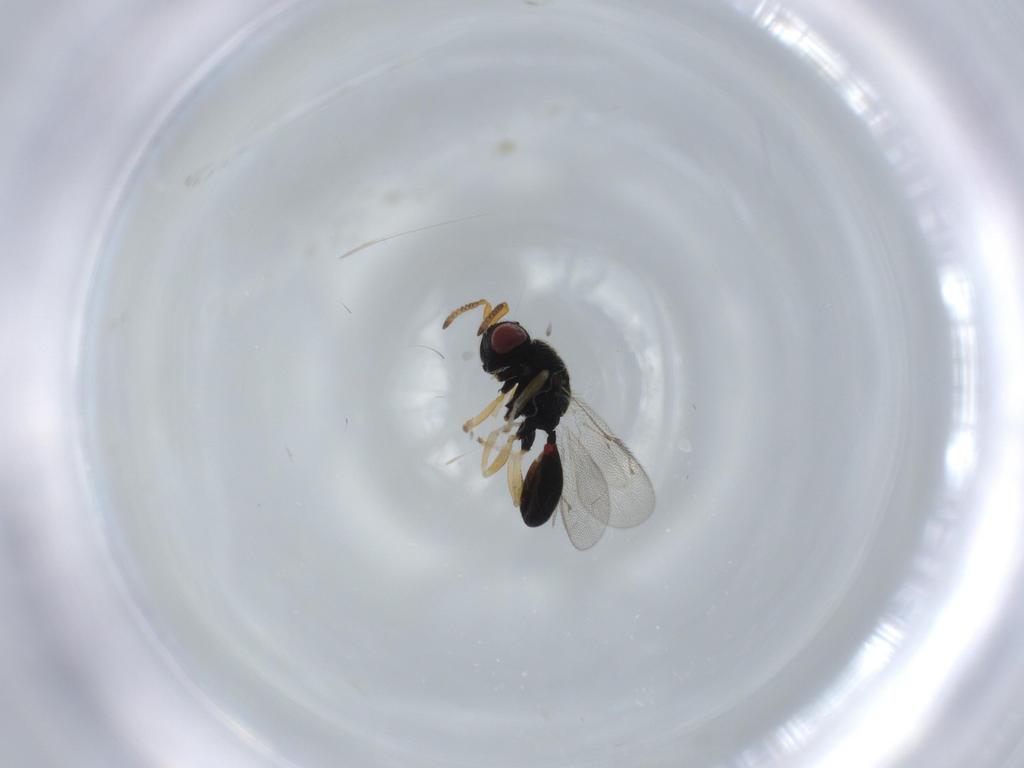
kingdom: Animalia
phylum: Arthropoda
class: Insecta
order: Hymenoptera
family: Eurytomidae
